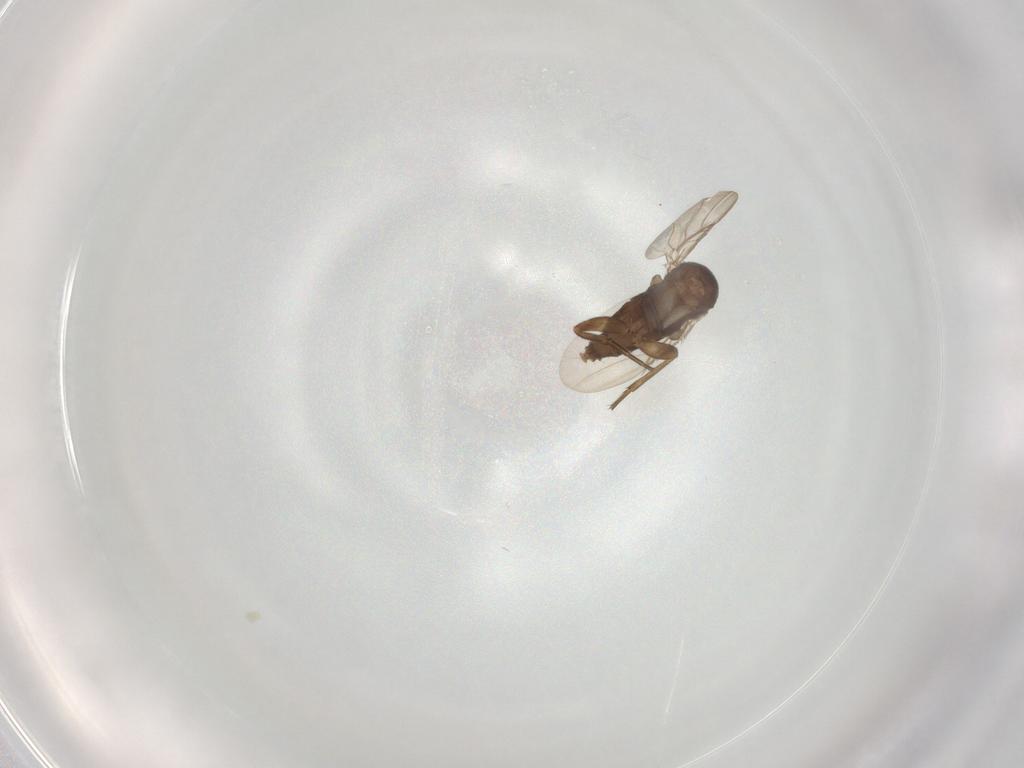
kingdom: Animalia
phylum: Arthropoda
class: Insecta
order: Diptera
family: Phoridae
